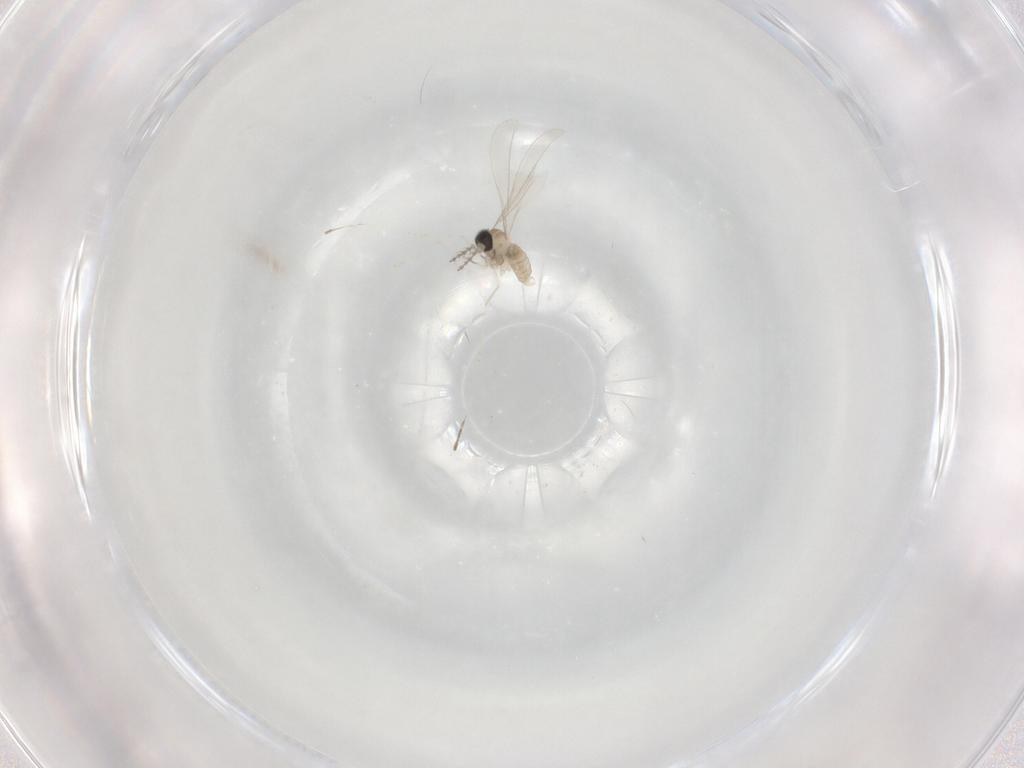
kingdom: Animalia
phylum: Arthropoda
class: Insecta
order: Diptera
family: Cecidomyiidae
